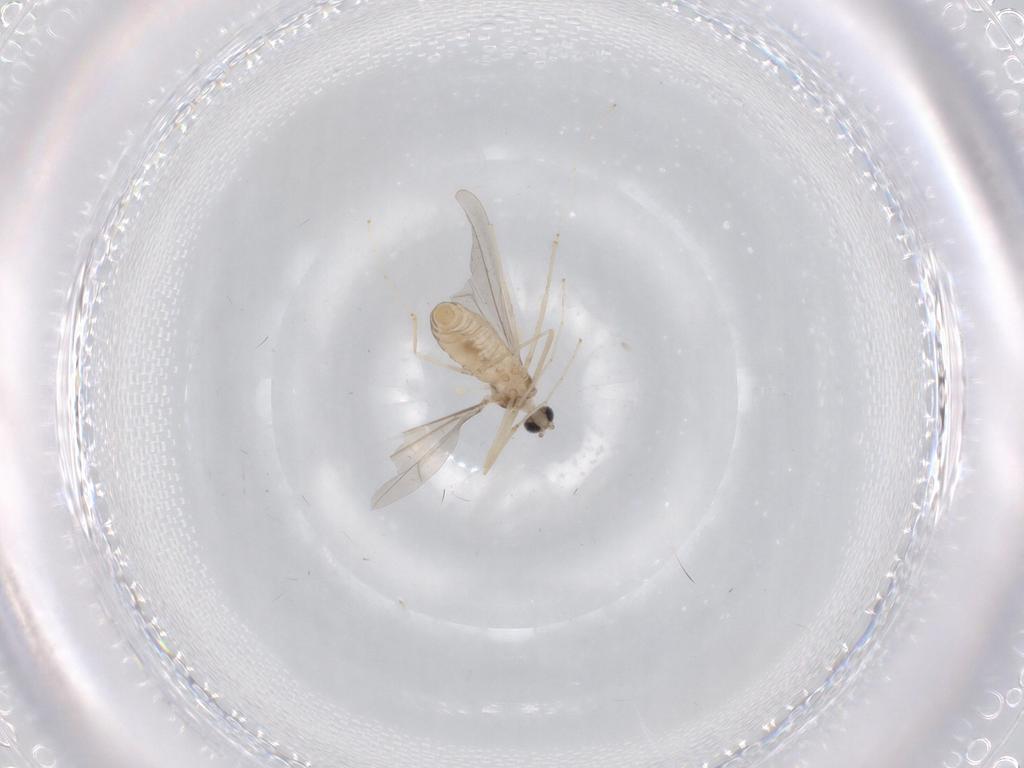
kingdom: Animalia
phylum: Arthropoda
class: Insecta
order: Diptera
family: Cecidomyiidae
